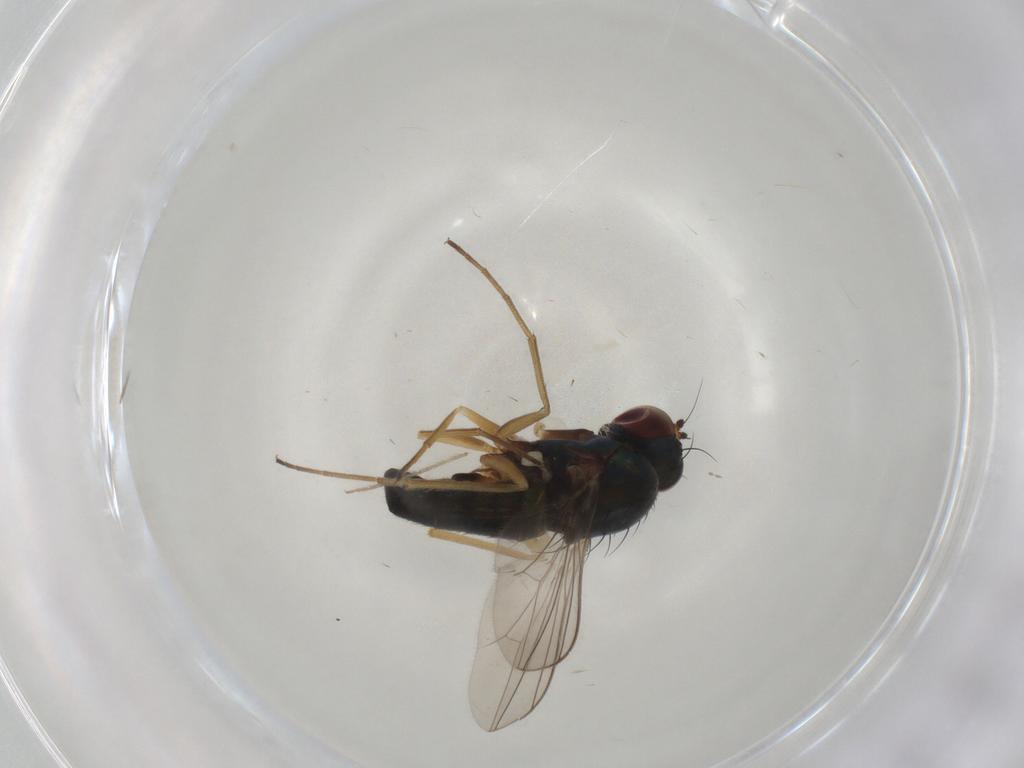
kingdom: Animalia
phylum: Arthropoda
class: Insecta
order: Diptera
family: Dolichopodidae
